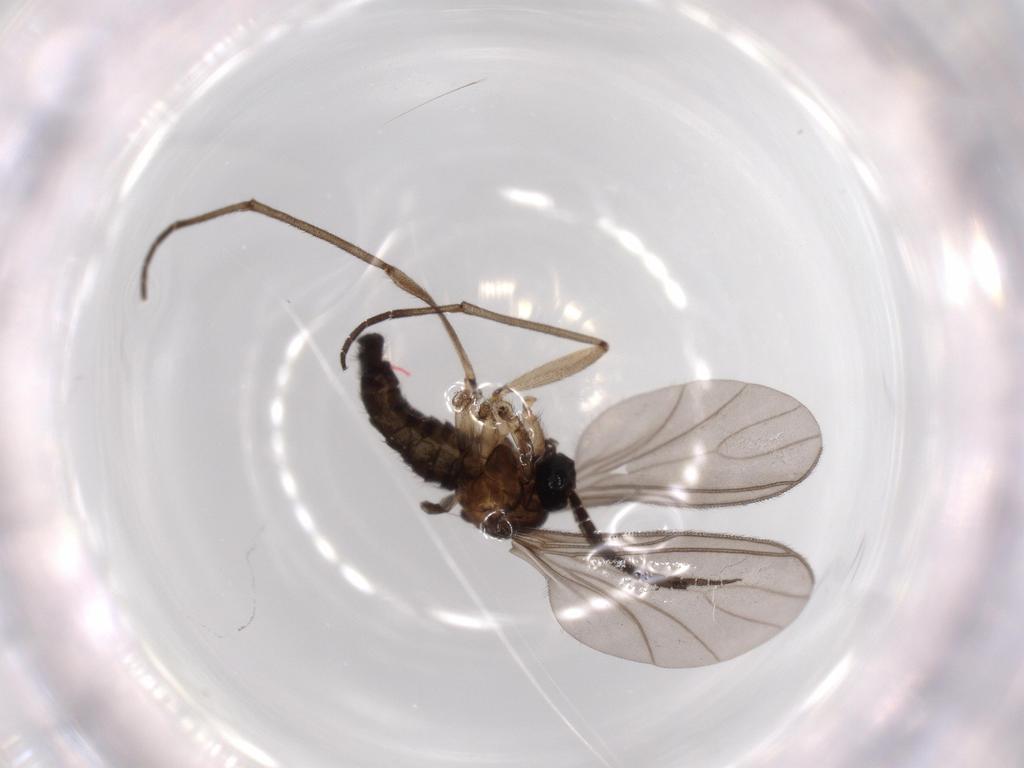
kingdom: Animalia
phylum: Arthropoda
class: Insecta
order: Diptera
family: Sciaridae
